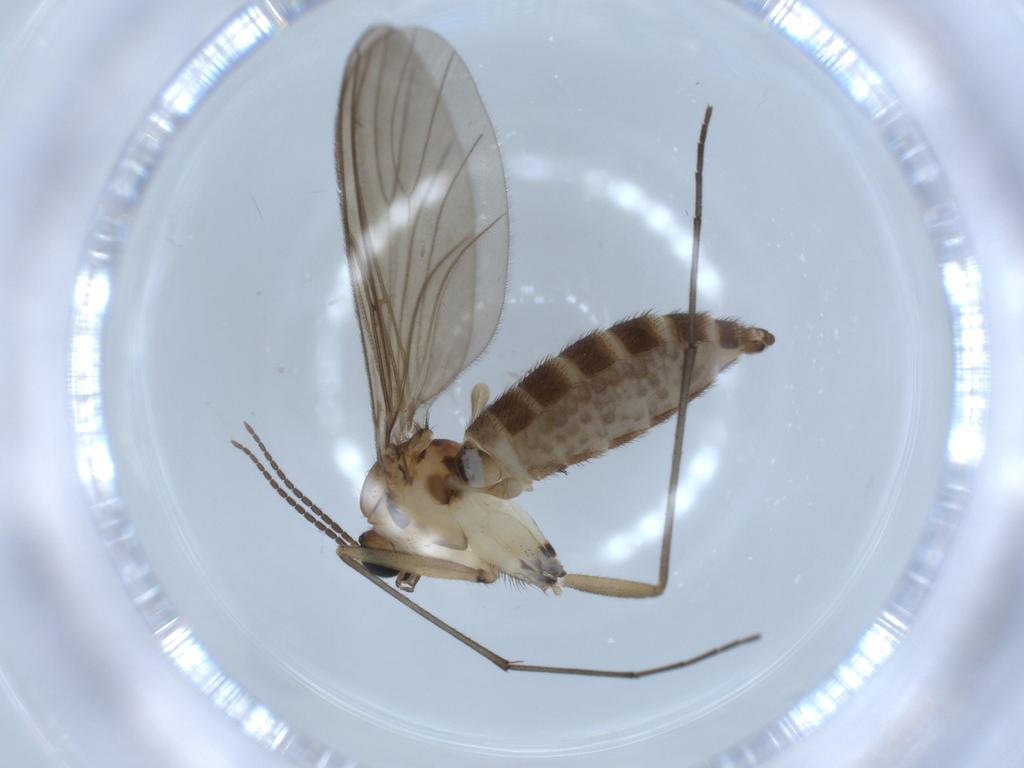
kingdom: Animalia
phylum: Arthropoda
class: Insecta
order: Diptera
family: Sciaridae
